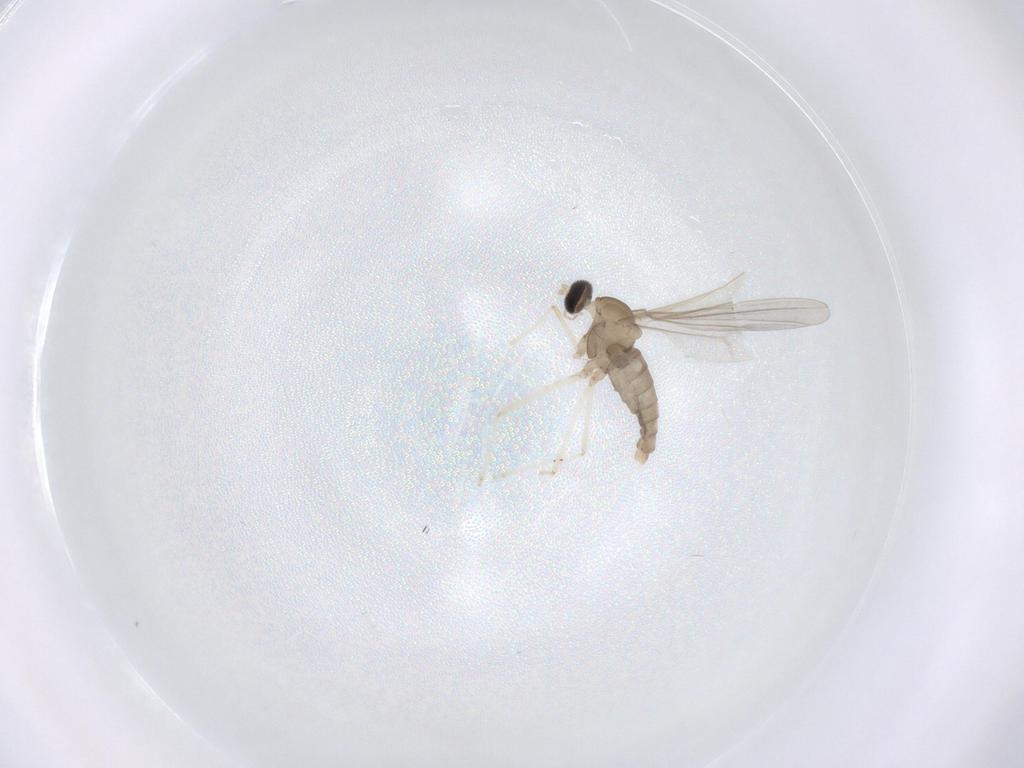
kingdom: Animalia
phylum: Arthropoda
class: Insecta
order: Diptera
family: Cecidomyiidae
